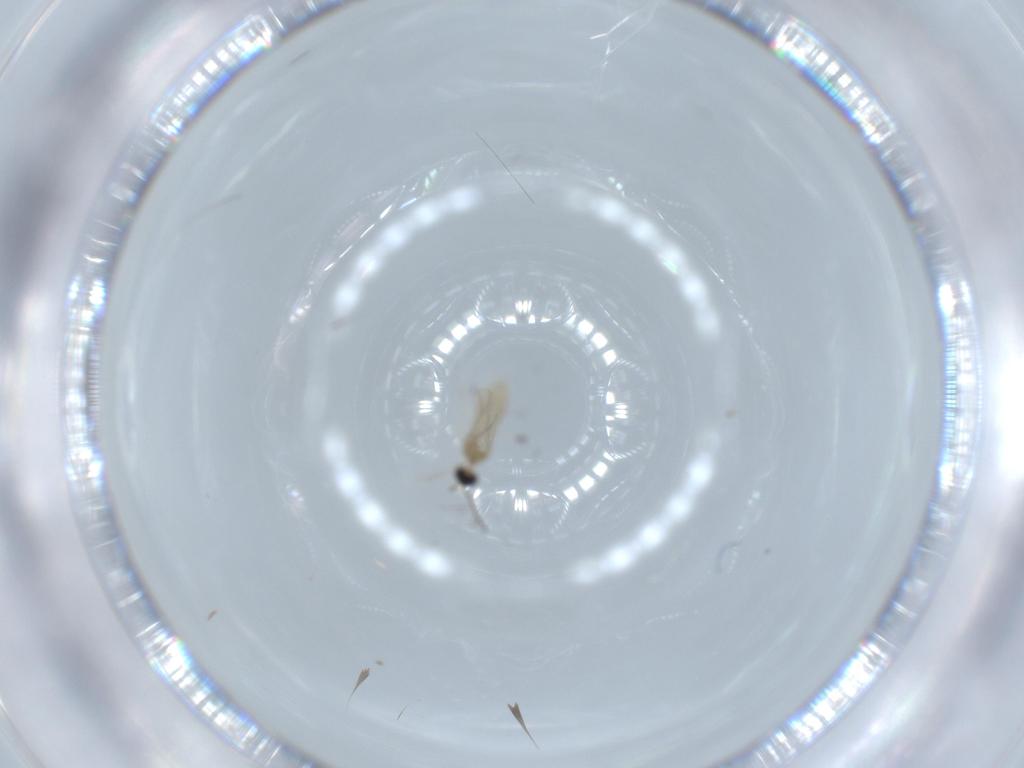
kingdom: Animalia
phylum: Arthropoda
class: Insecta
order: Diptera
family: Cecidomyiidae
